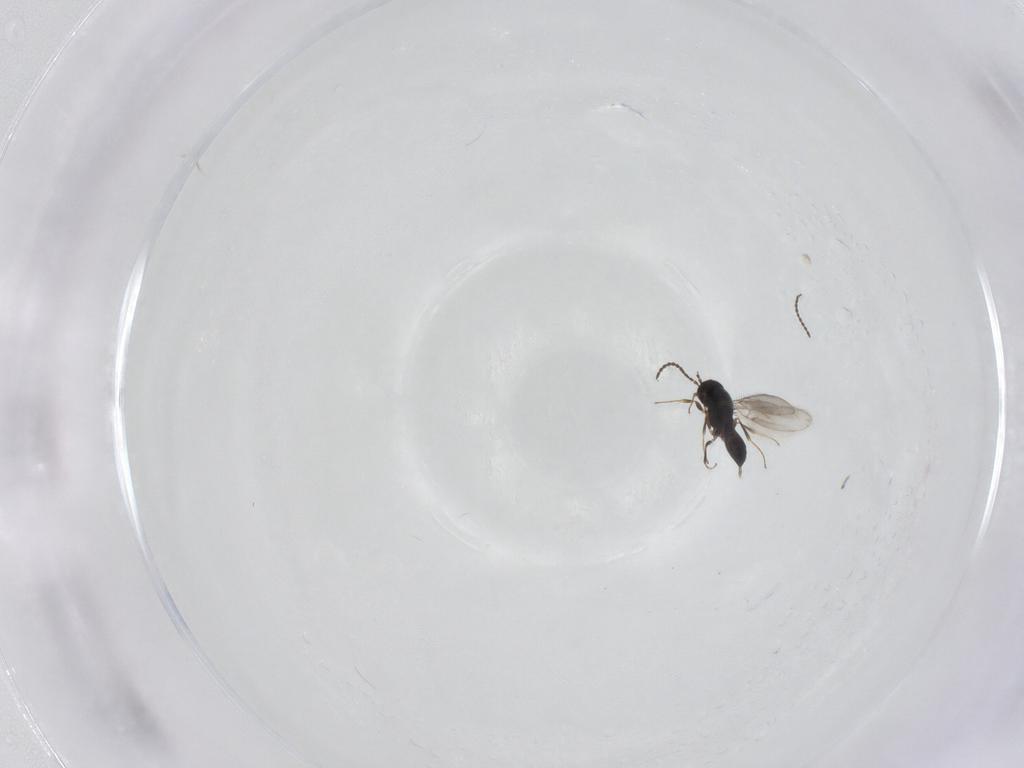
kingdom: Animalia
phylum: Arthropoda
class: Insecta
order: Hymenoptera
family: Scelionidae
